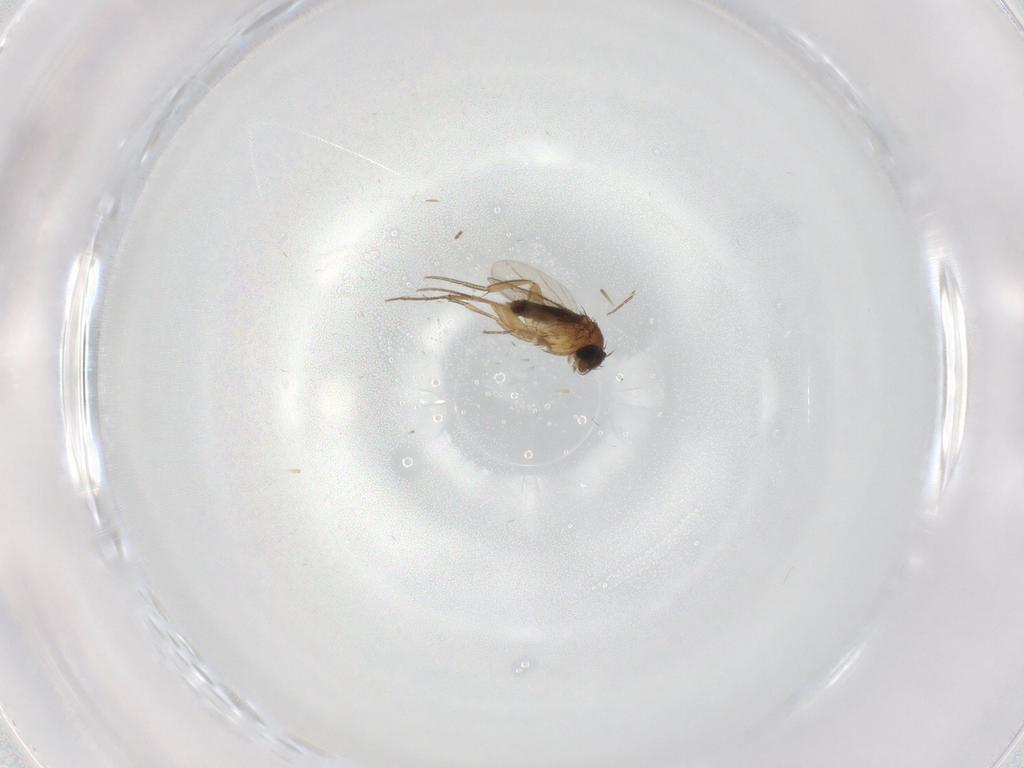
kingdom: Animalia
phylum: Arthropoda
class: Insecta
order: Diptera
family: Phoridae
